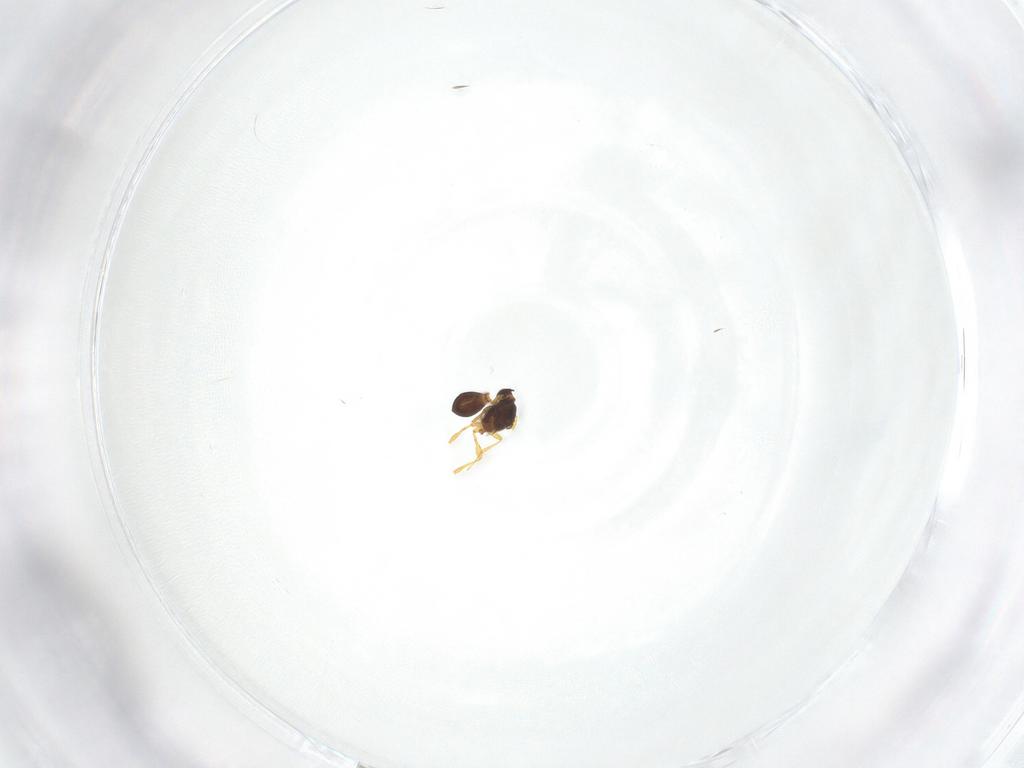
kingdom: Animalia
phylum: Arthropoda
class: Insecta
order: Hymenoptera
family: Platygastridae
